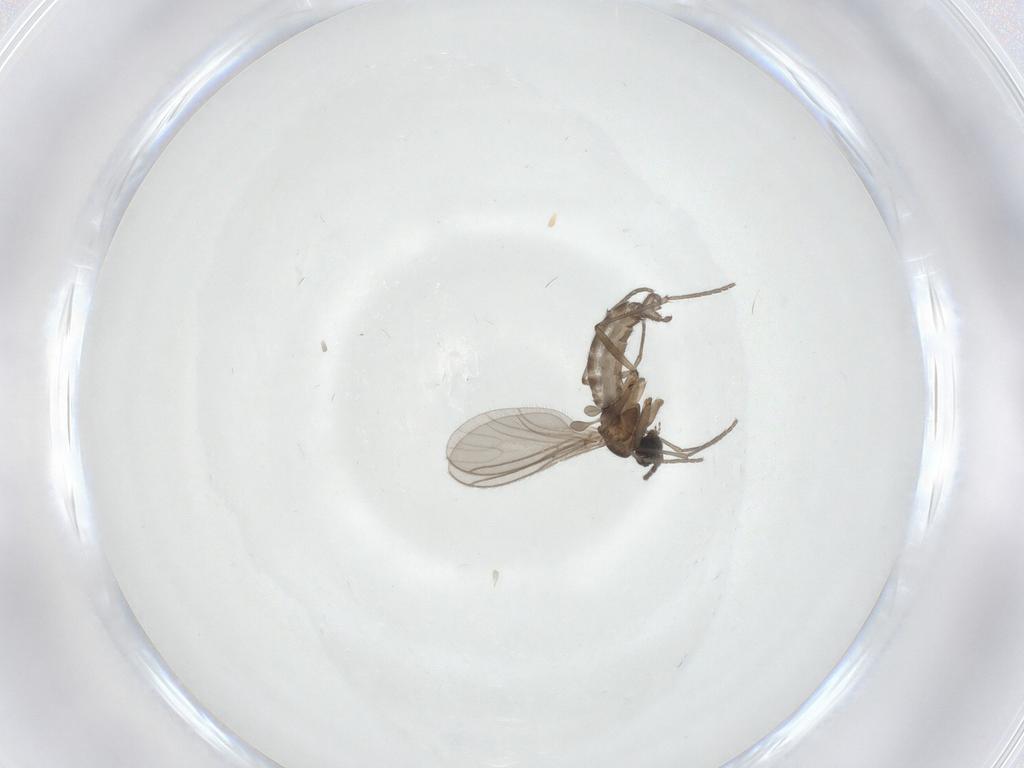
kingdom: Animalia
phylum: Arthropoda
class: Insecta
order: Diptera
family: Sciaridae
